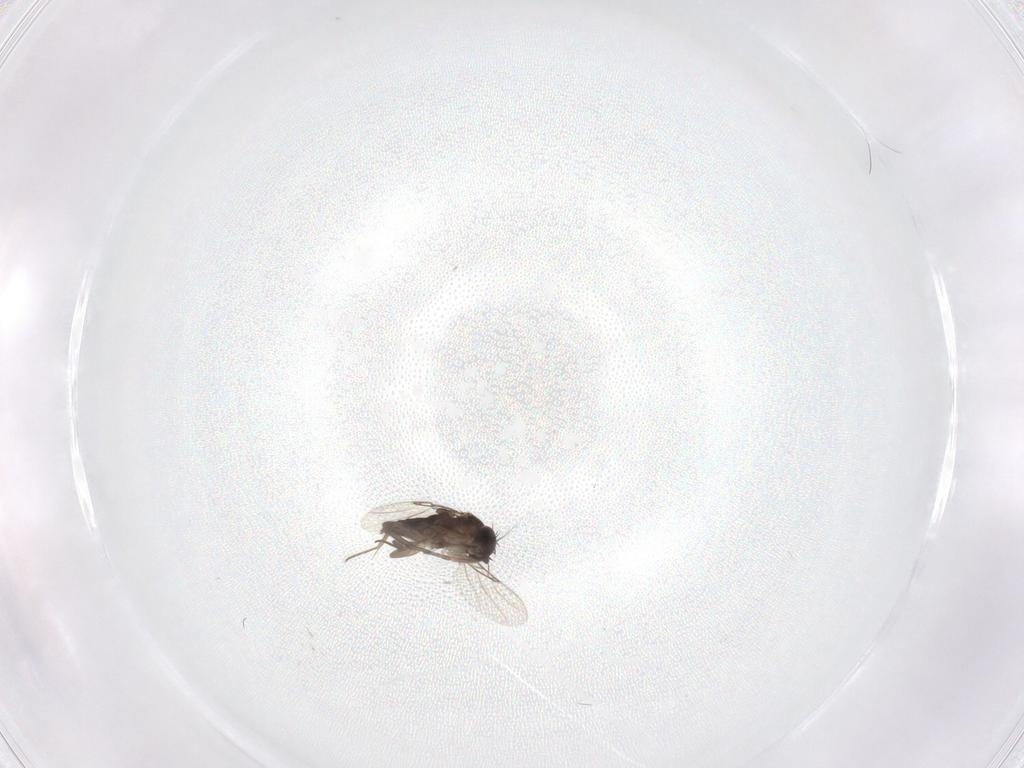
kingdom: Animalia
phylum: Arthropoda
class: Insecta
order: Diptera
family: Phoridae
